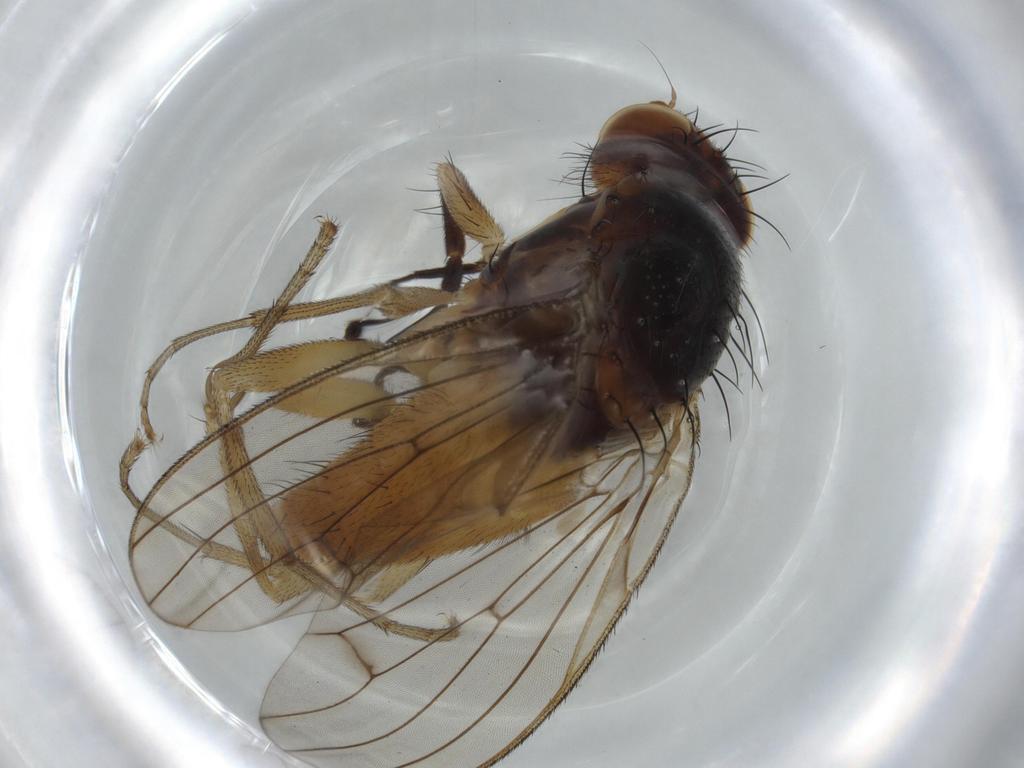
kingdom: Animalia
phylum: Arthropoda
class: Insecta
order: Diptera
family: Heleomyzidae
